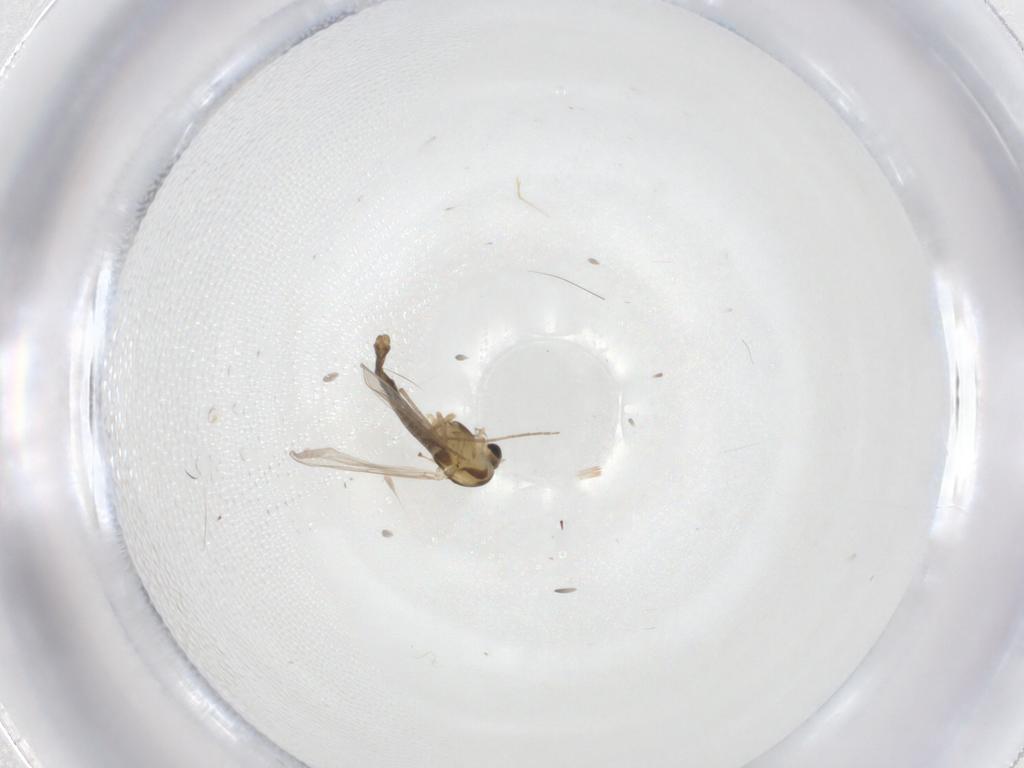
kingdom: Animalia
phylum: Arthropoda
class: Insecta
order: Diptera
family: Chironomidae
